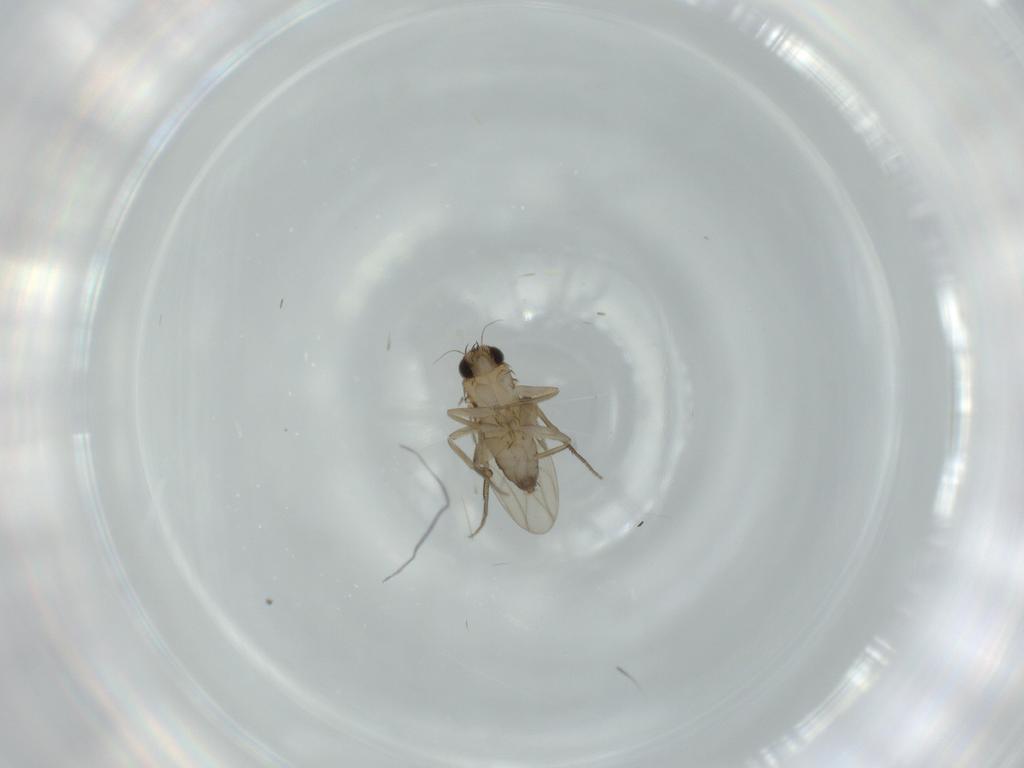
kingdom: Animalia
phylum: Arthropoda
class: Insecta
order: Diptera
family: Phoridae
